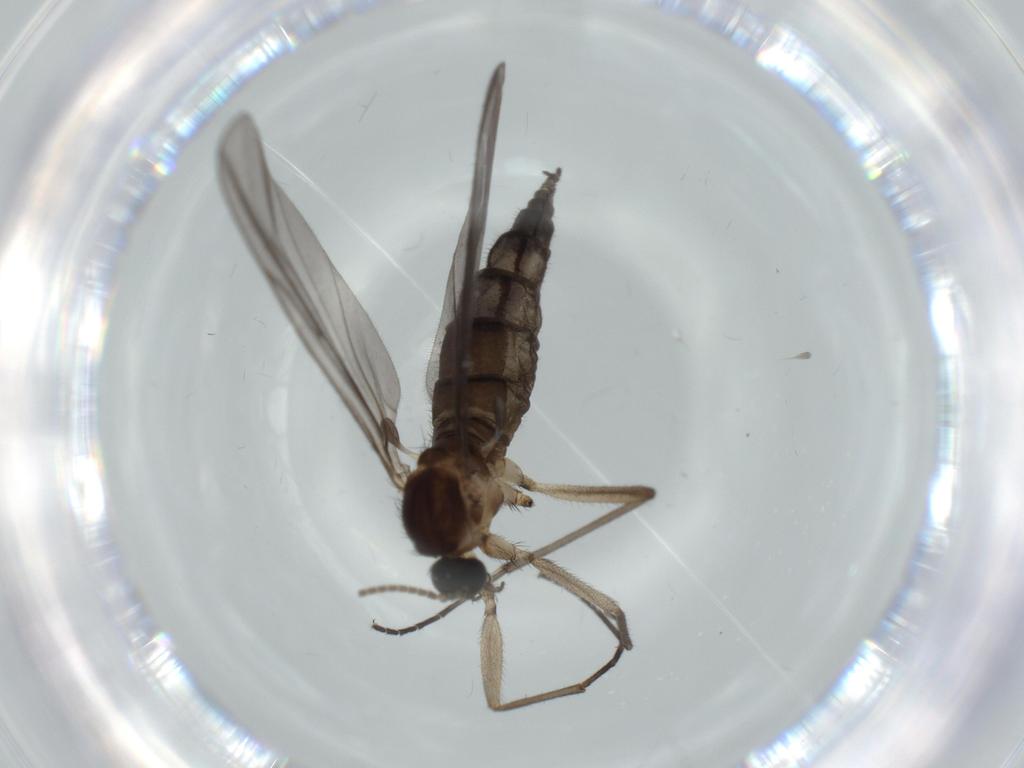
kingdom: Animalia
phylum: Arthropoda
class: Insecta
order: Diptera
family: Sciaridae
